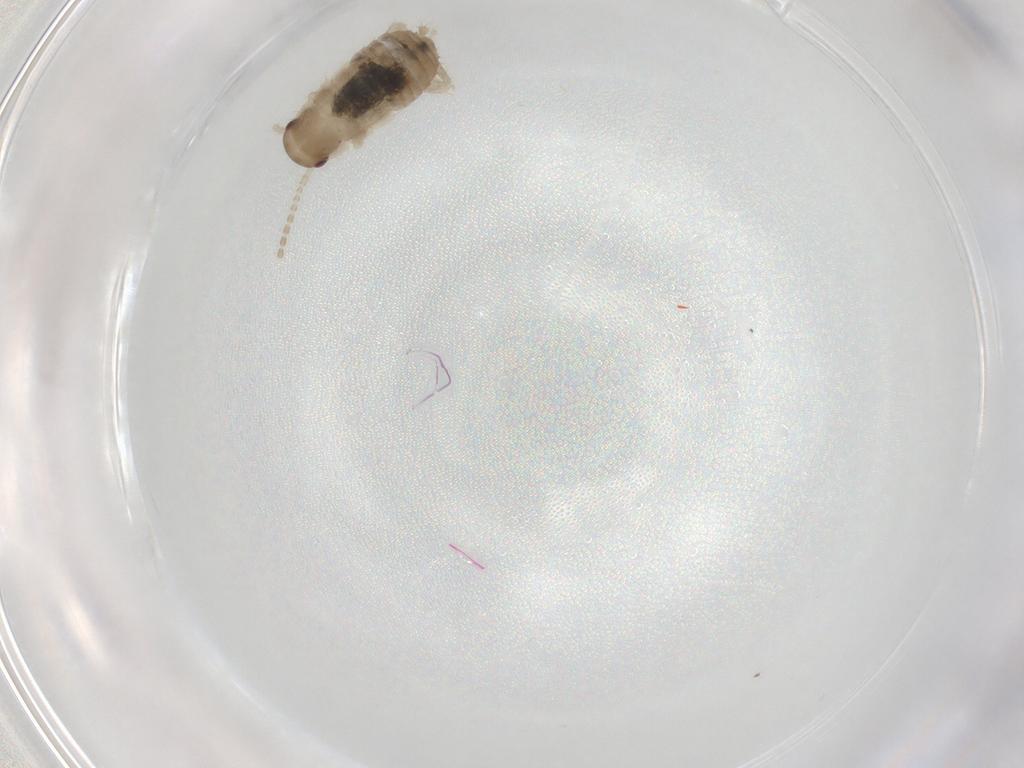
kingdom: Animalia
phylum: Arthropoda
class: Insecta
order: Blattodea
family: Ectobiidae
